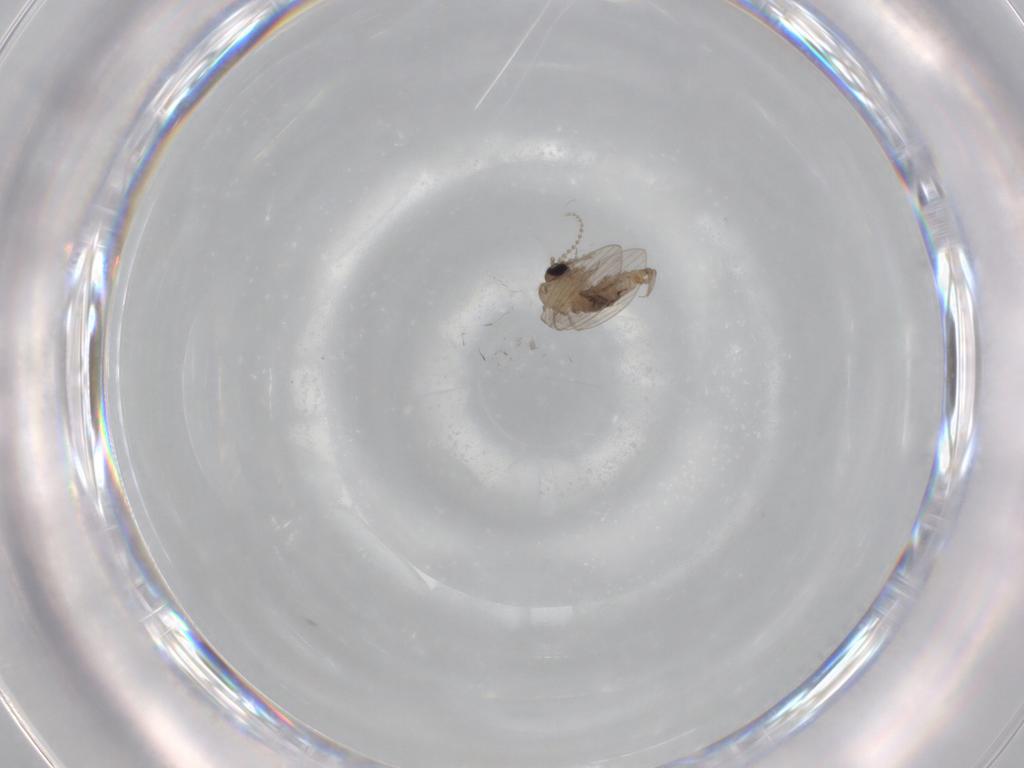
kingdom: Animalia
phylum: Arthropoda
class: Insecta
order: Diptera
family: Psychodidae
